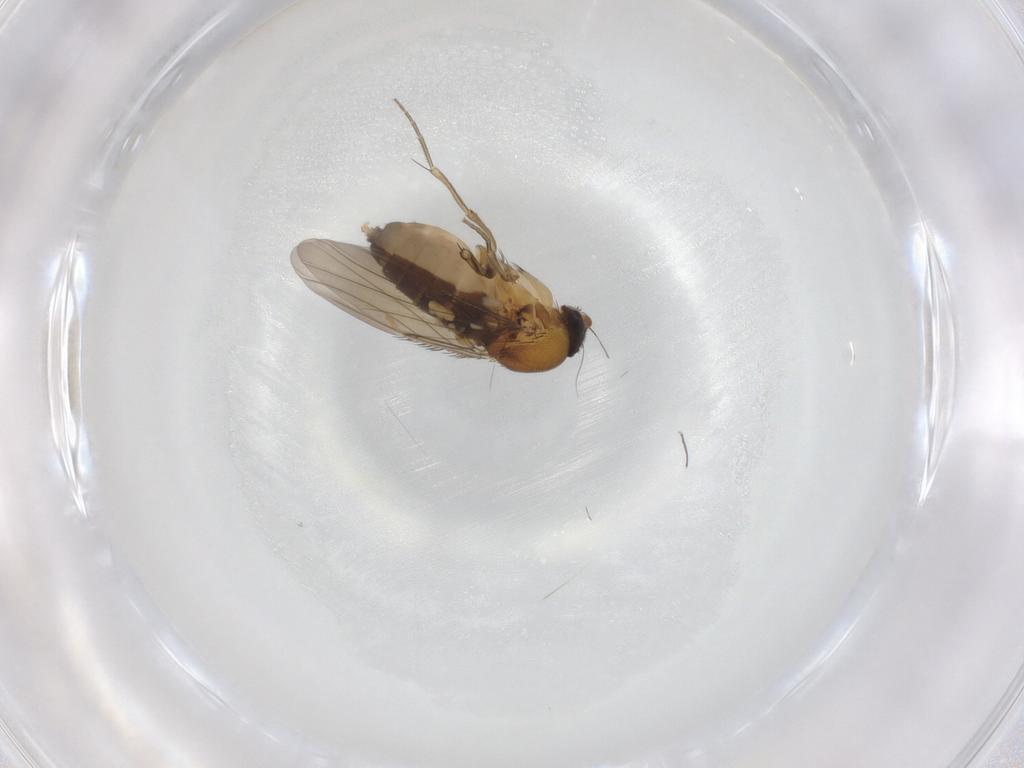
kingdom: Animalia
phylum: Arthropoda
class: Insecta
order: Diptera
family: Phoridae
